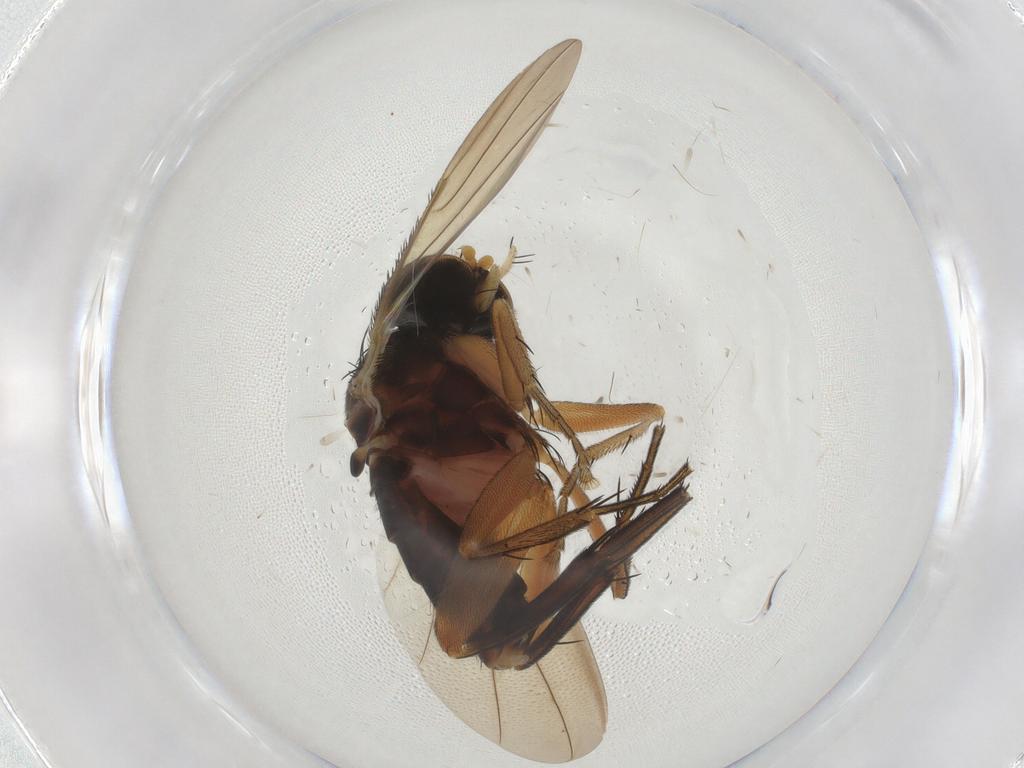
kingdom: Animalia
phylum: Arthropoda
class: Insecta
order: Diptera
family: Phoridae
